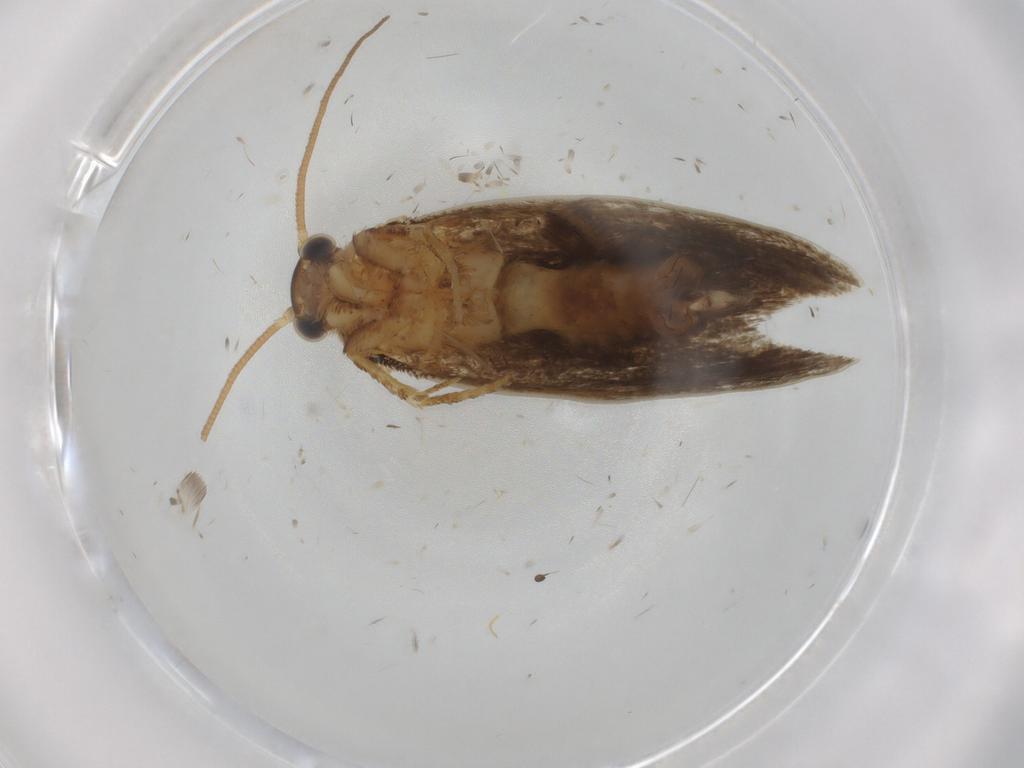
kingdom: Animalia
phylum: Arthropoda
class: Insecta
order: Lepidoptera
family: Nepticulidae
